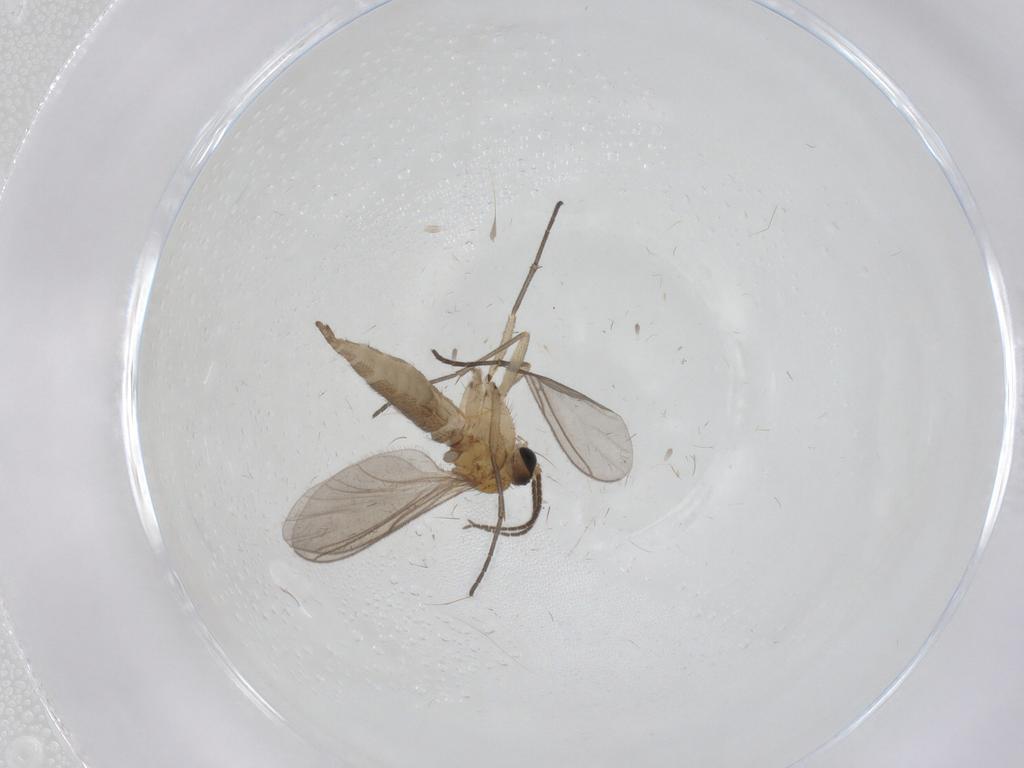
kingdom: Animalia
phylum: Arthropoda
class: Insecta
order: Diptera
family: Sciaridae
